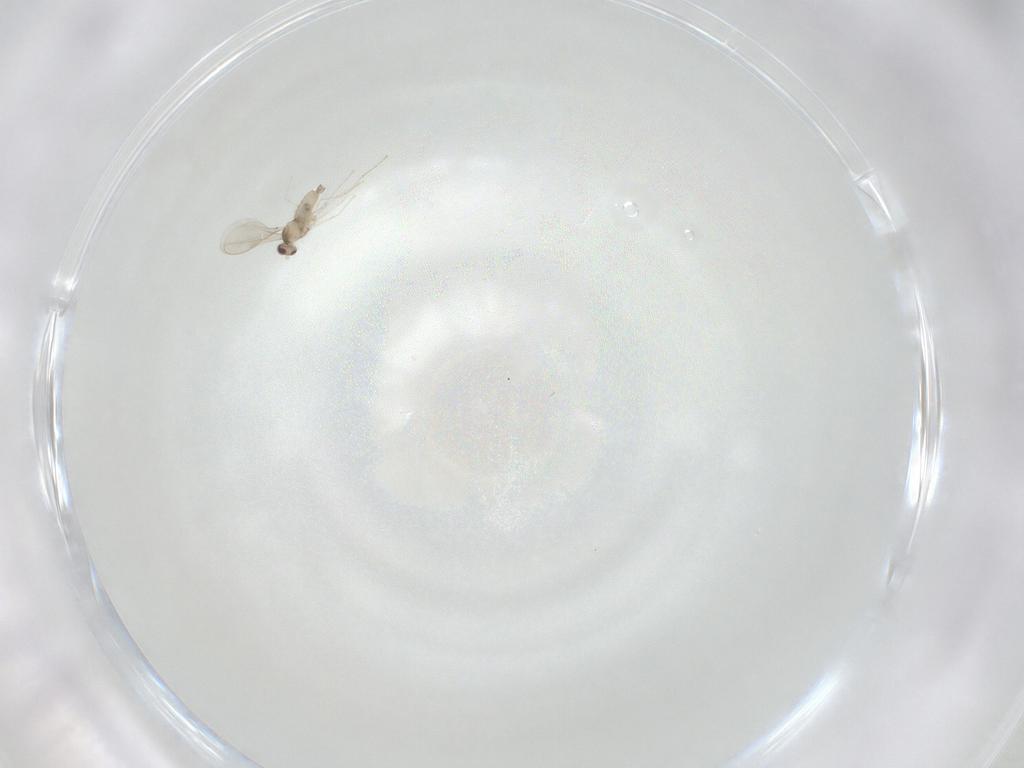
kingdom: Animalia
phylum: Arthropoda
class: Insecta
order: Diptera
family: Cecidomyiidae
